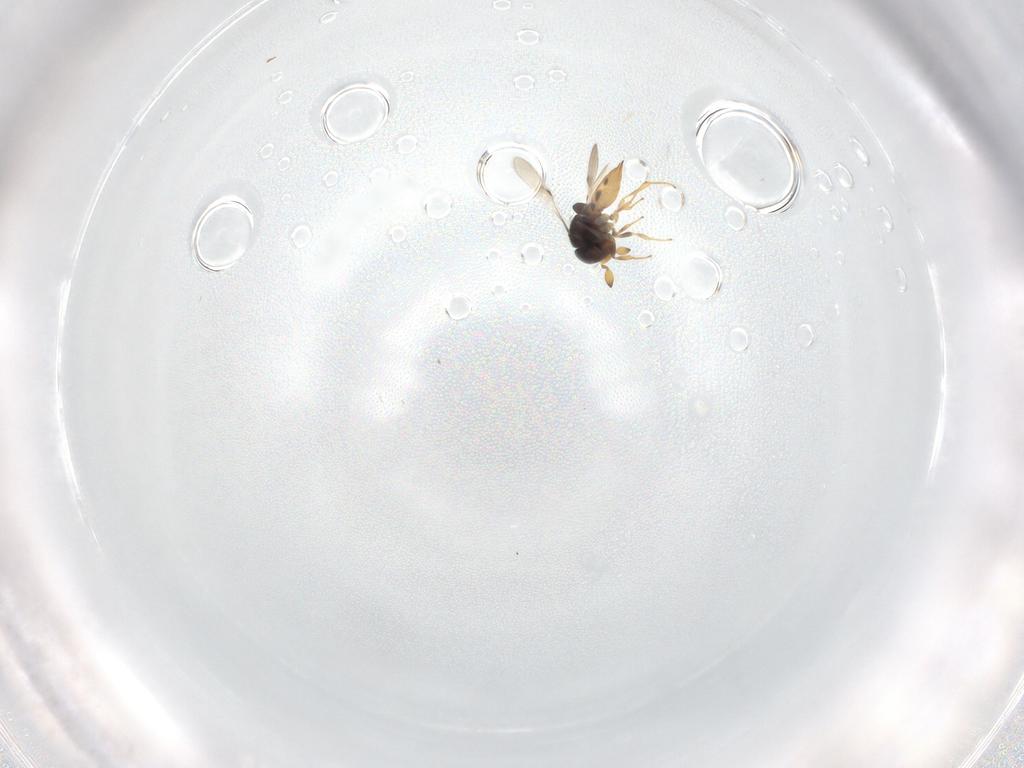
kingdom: Animalia
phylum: Arthropoda
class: Insecta
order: Hymenoptera
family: Scelionidae
